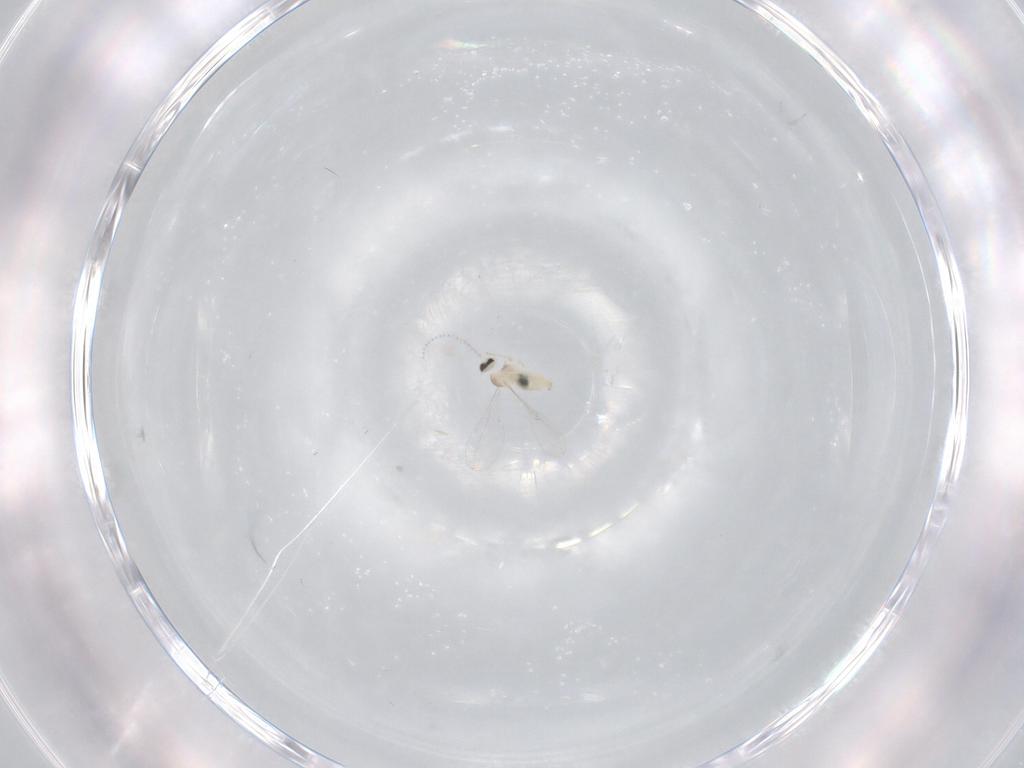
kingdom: Animalia
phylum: Arthropoda
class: Insecta
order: Diptera
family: Cecidomyiidae
